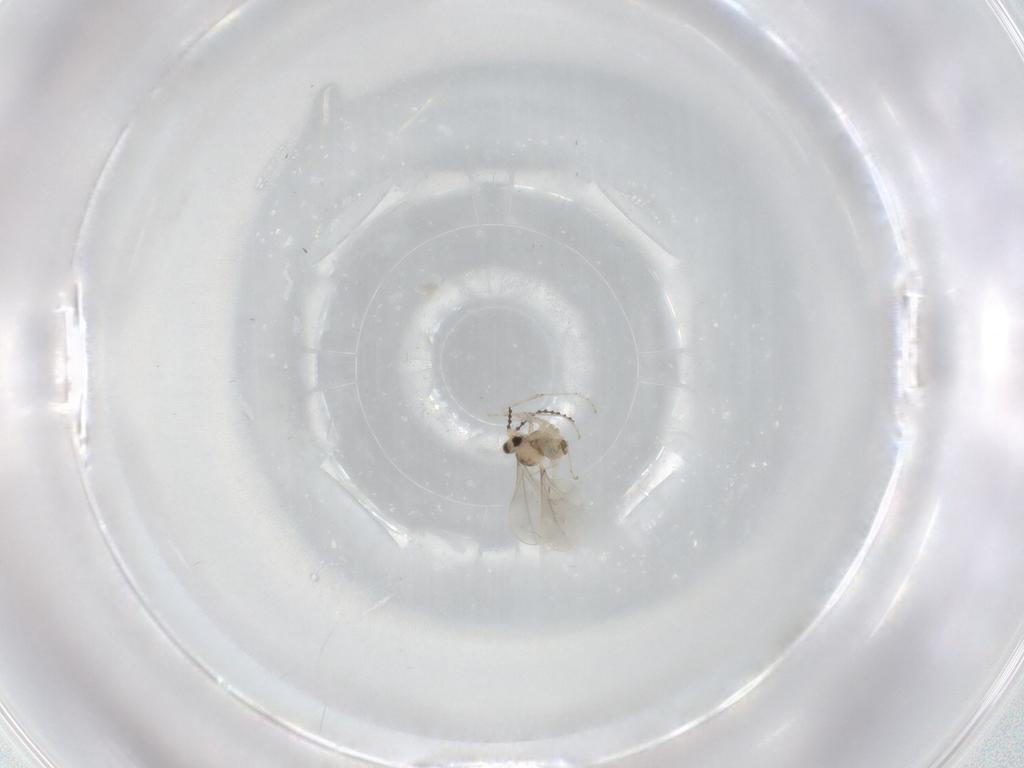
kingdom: Animalia
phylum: Arthropoda
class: Insecta
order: Diptera
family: Cecidomyiidae
